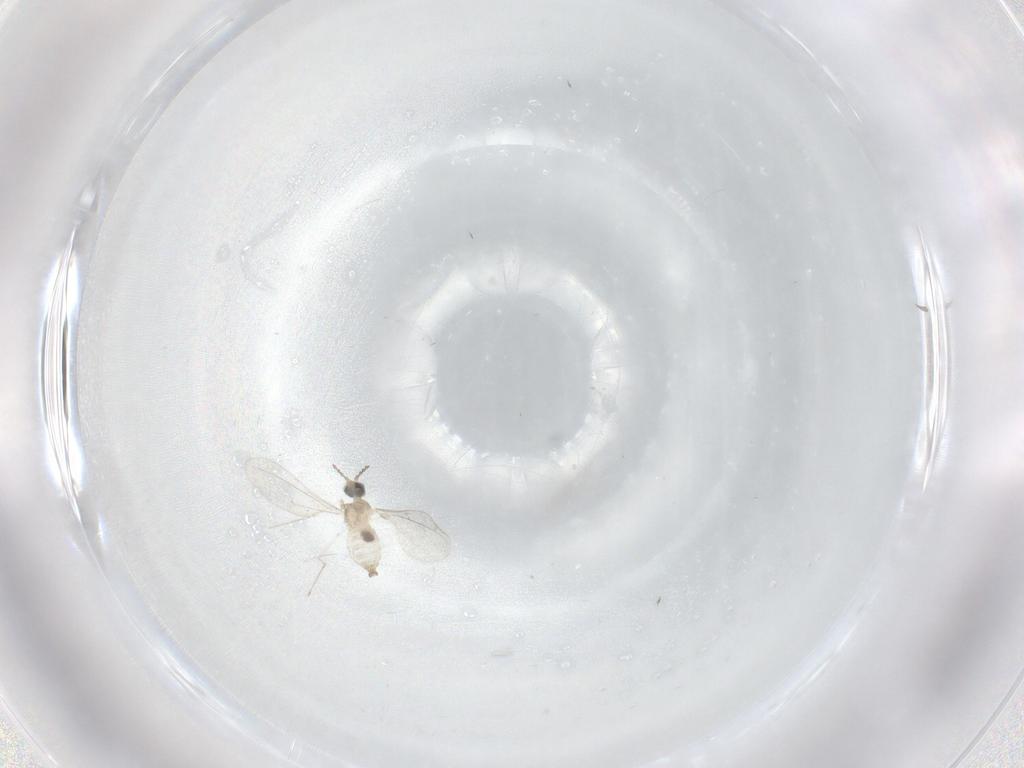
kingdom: Animalia
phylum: Arthropoda
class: Insecta
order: Diptera
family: Cecidomyiidae
